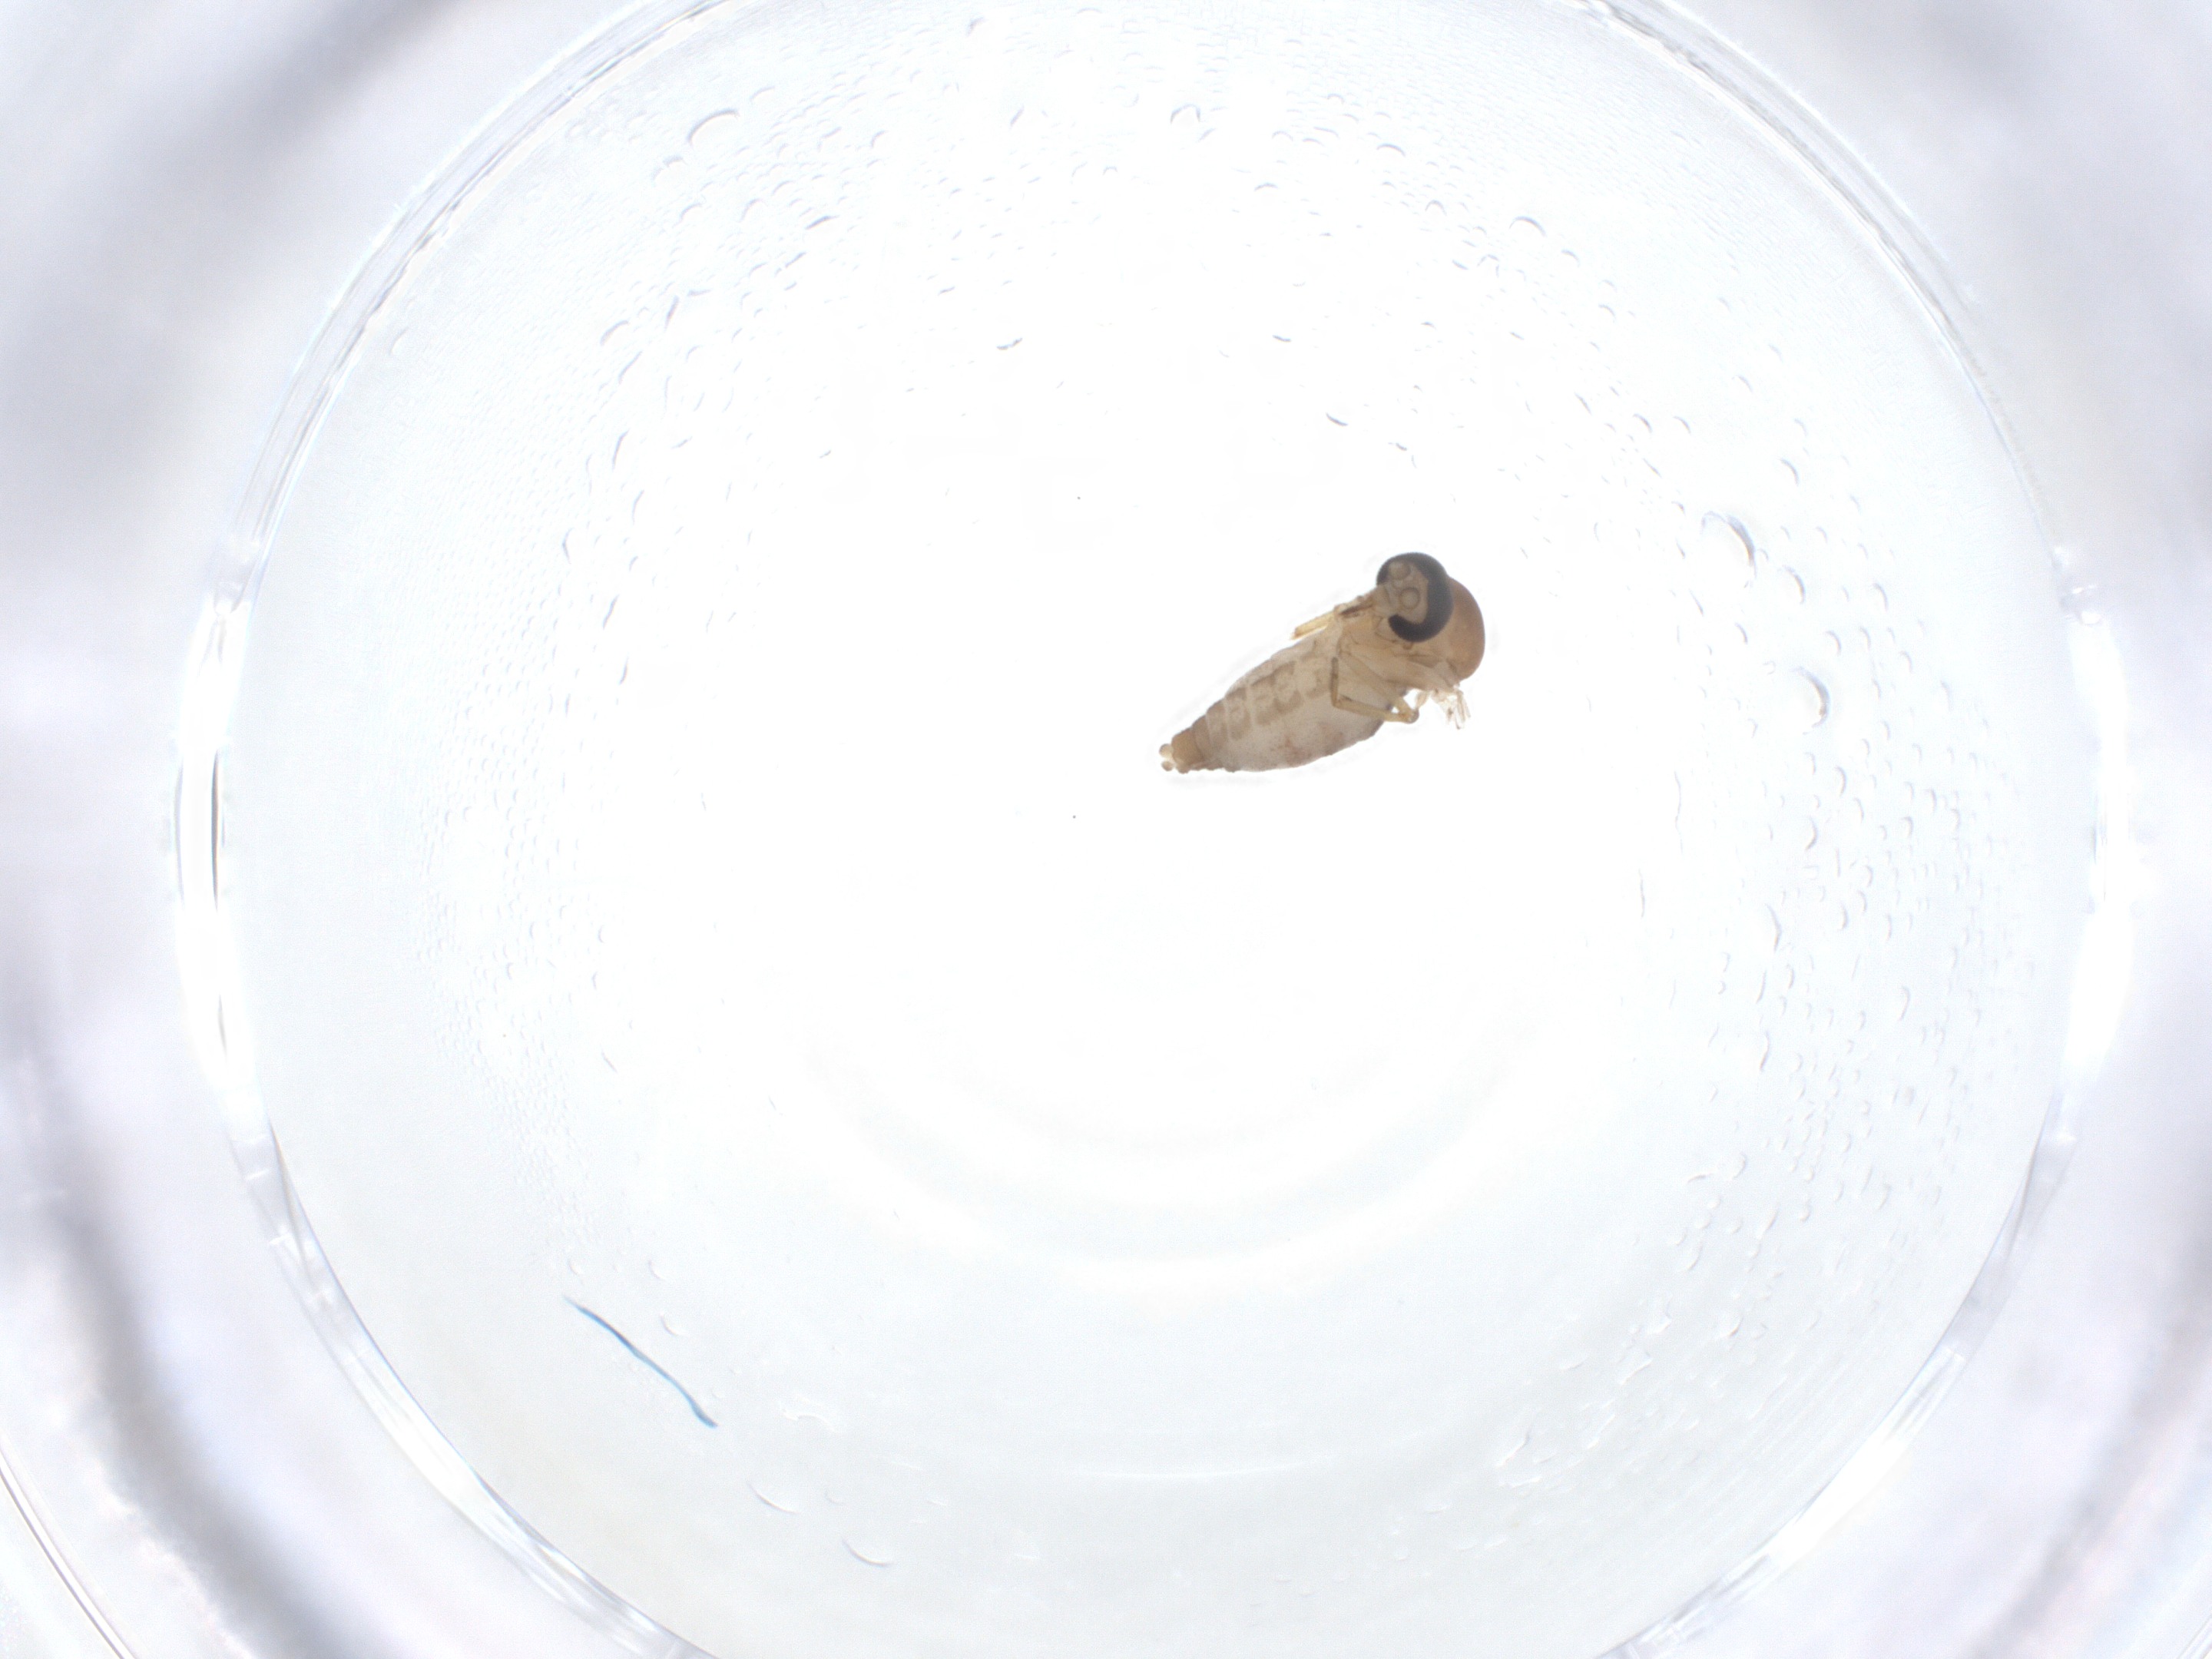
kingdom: Animalia
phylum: Arthropoda
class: Insecta
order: Diptera
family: Ceratopogonidae
